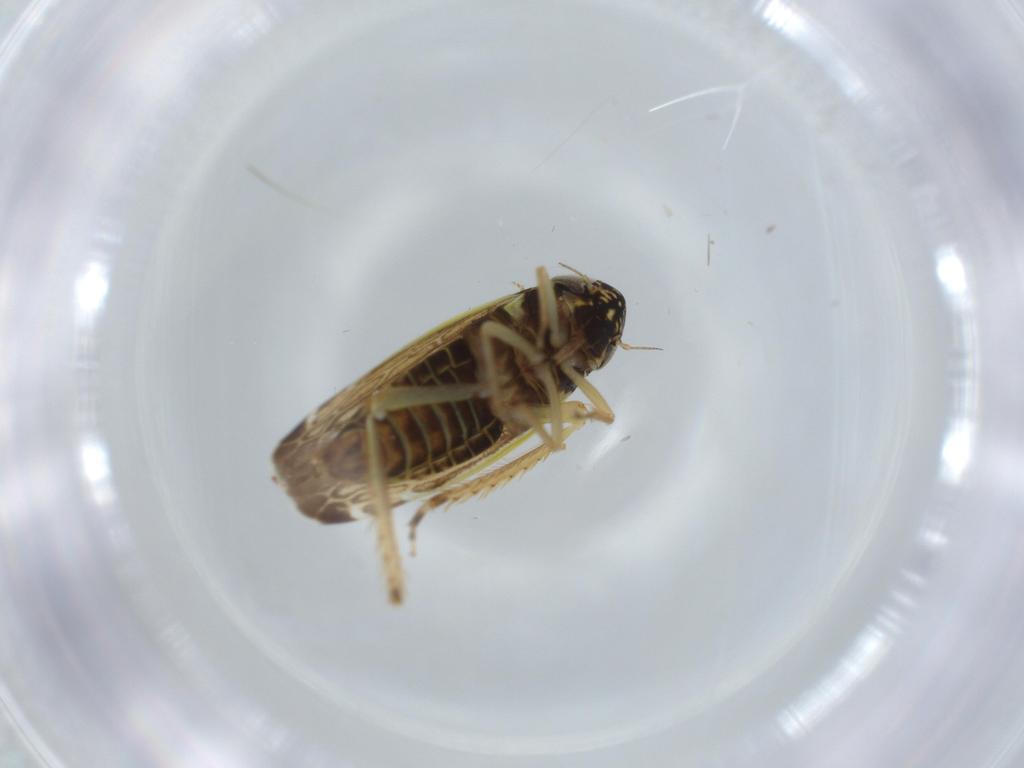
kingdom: Animalia
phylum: Arthropoda
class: Insecta
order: Hemiptera
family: Cicadellidae
